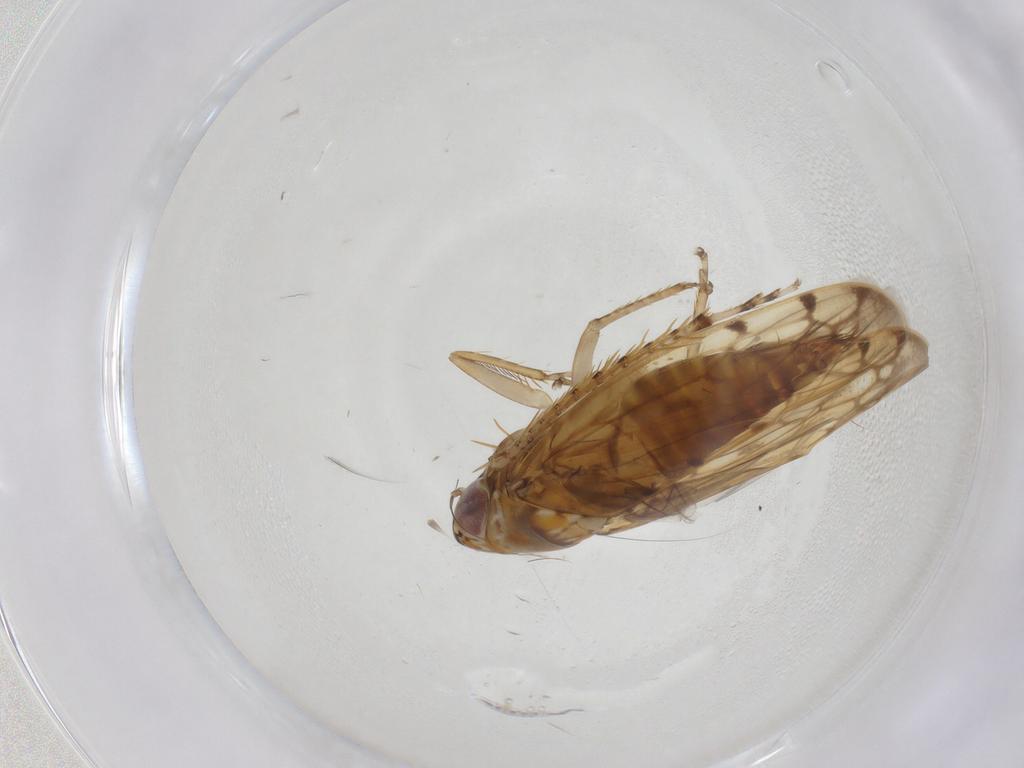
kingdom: Animalia
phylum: Arthropoda
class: Insecta
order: Hemiptera
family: Cicadellidae
